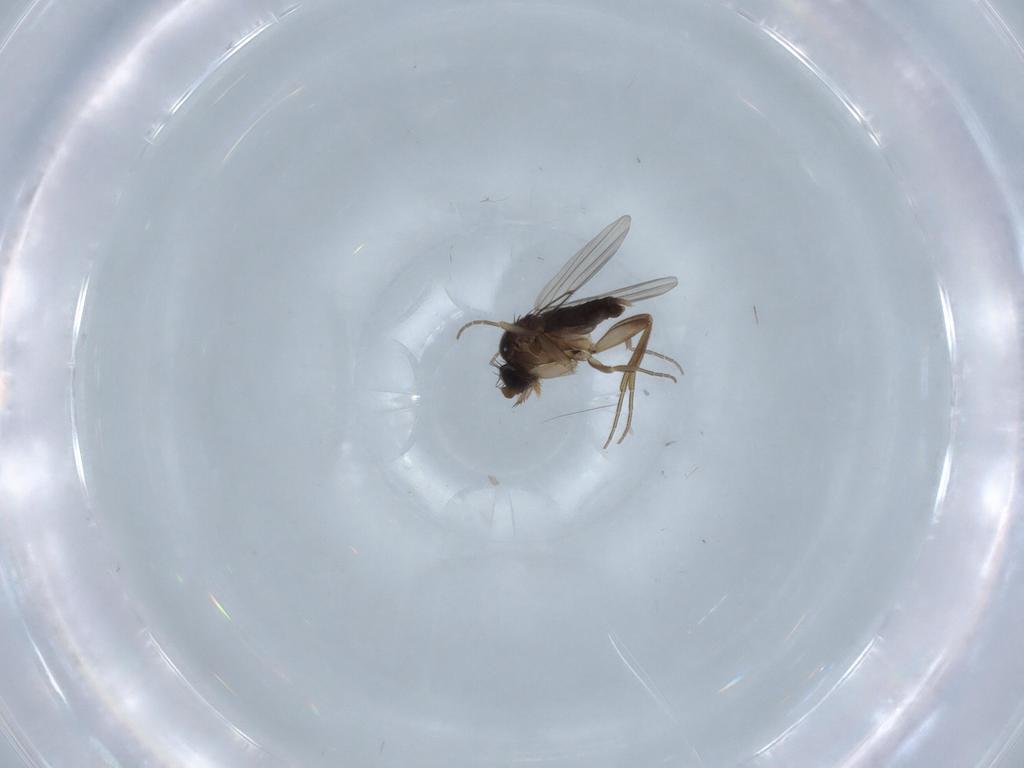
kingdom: Animalia
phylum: Arthropoda
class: Insecta
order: Diptera
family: Phoridae
